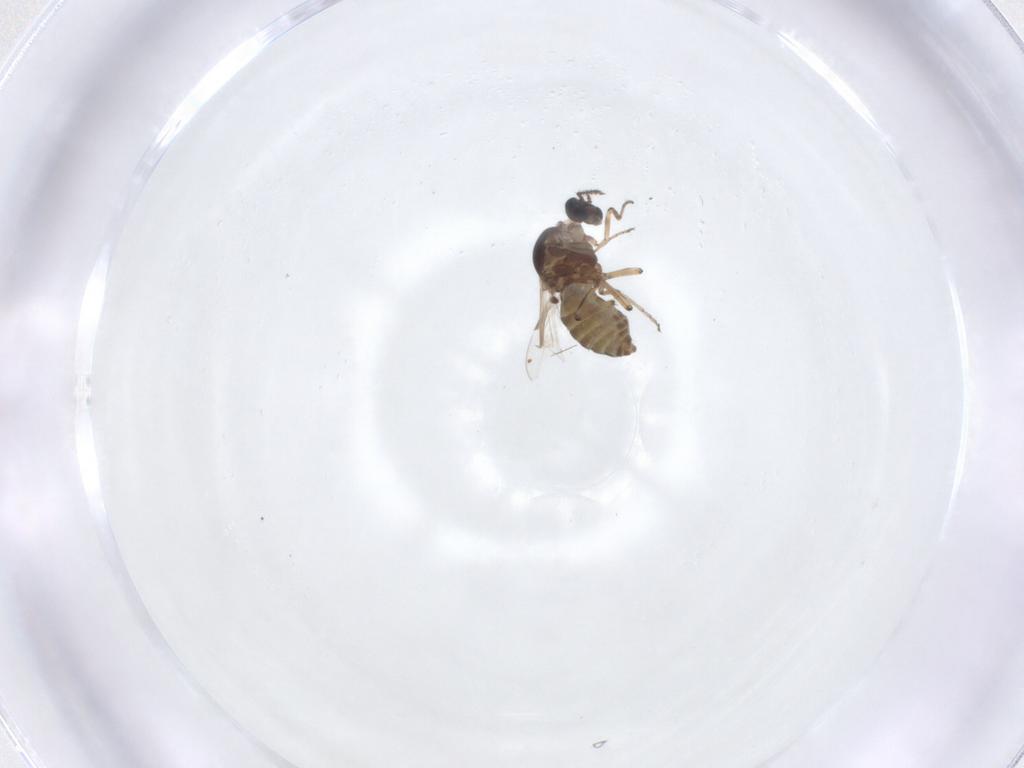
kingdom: Animalia
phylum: Arthropoda
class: Insecta
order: Diptera
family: Ceratopogonidae
